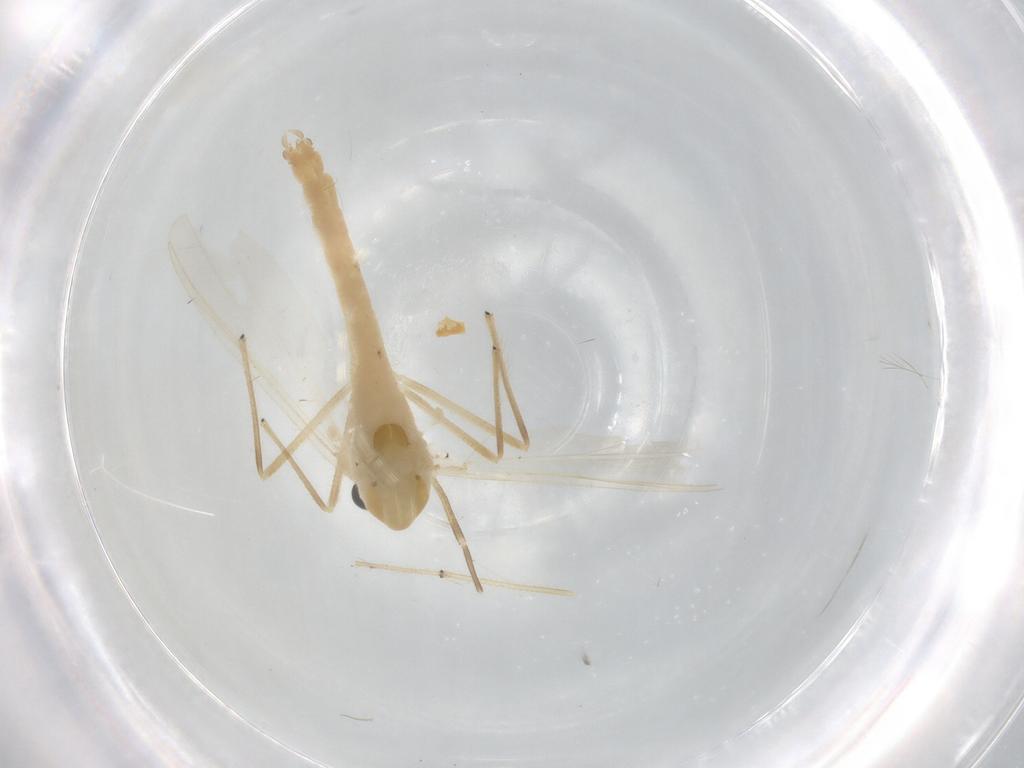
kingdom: Animalia
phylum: Arthropoda
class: Insecta
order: Diptera
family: Chironomidae
